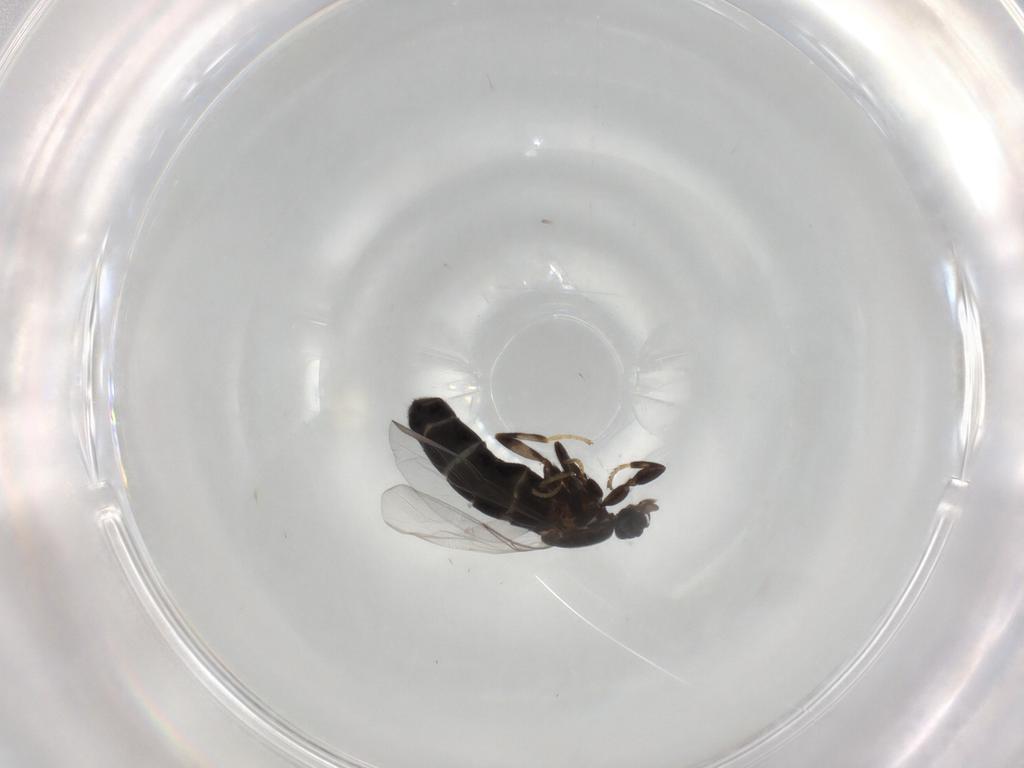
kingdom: Animalia
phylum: Arthropoda
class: Insecta
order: Diptera
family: Scatopsidae
